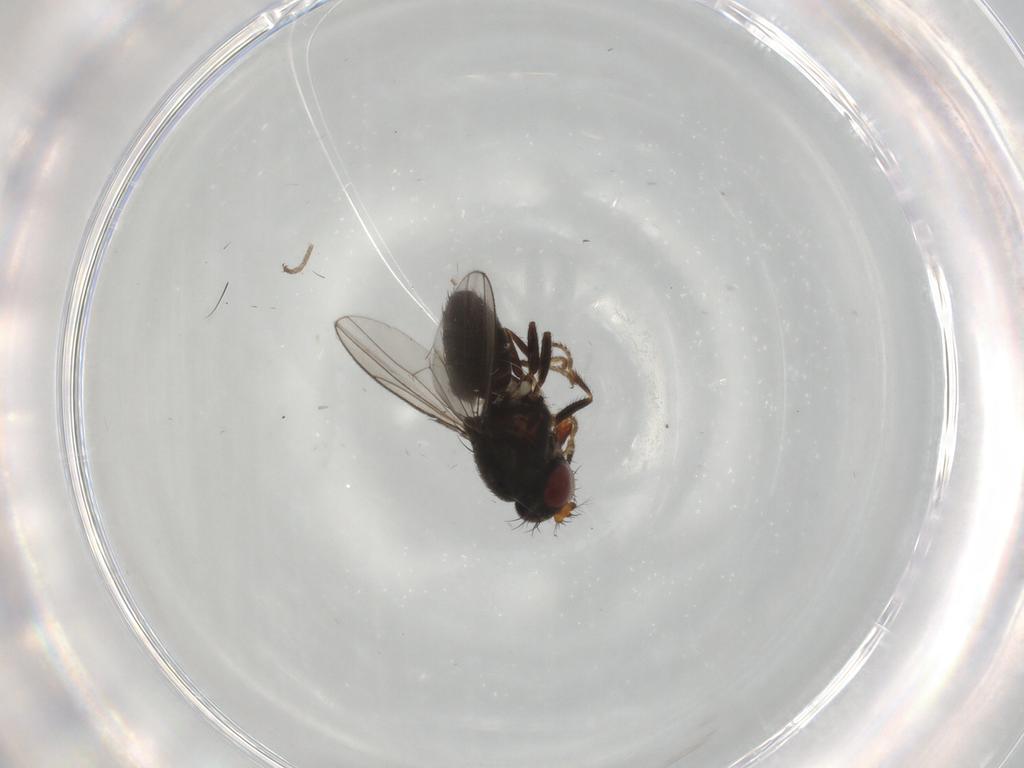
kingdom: Animalia
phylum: Arthropoda
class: Insecta
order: Diptera
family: Ephydridae
